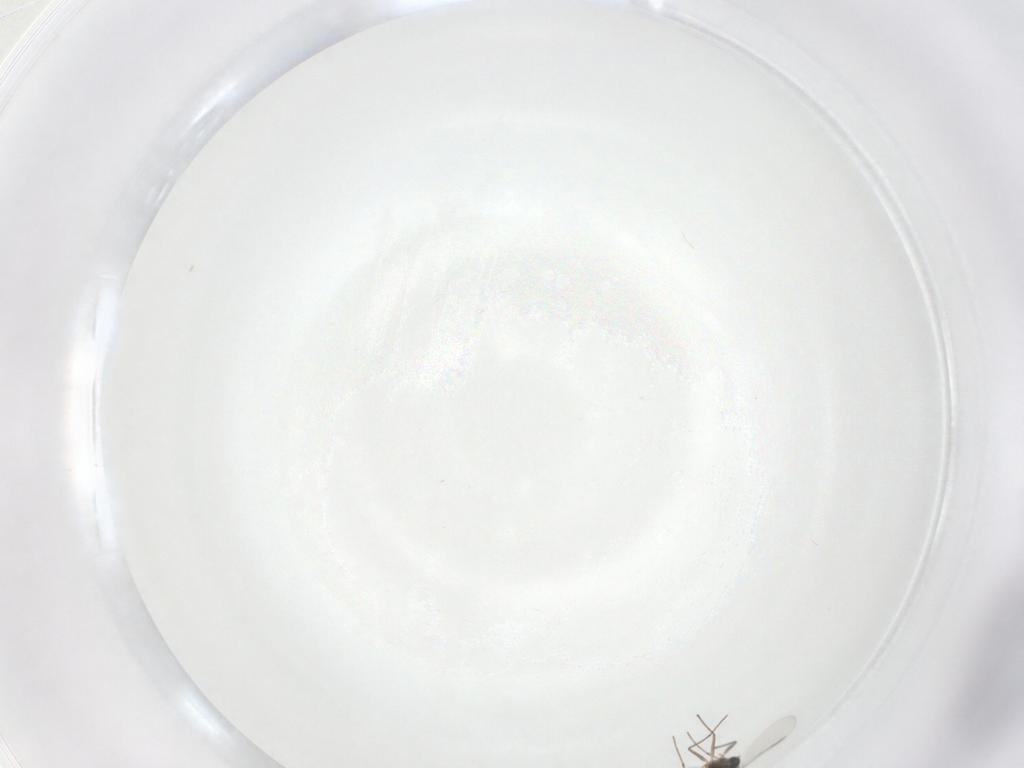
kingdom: Animalia
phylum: Arthropoda
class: Insecta
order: Diptera
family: Chironomidae
